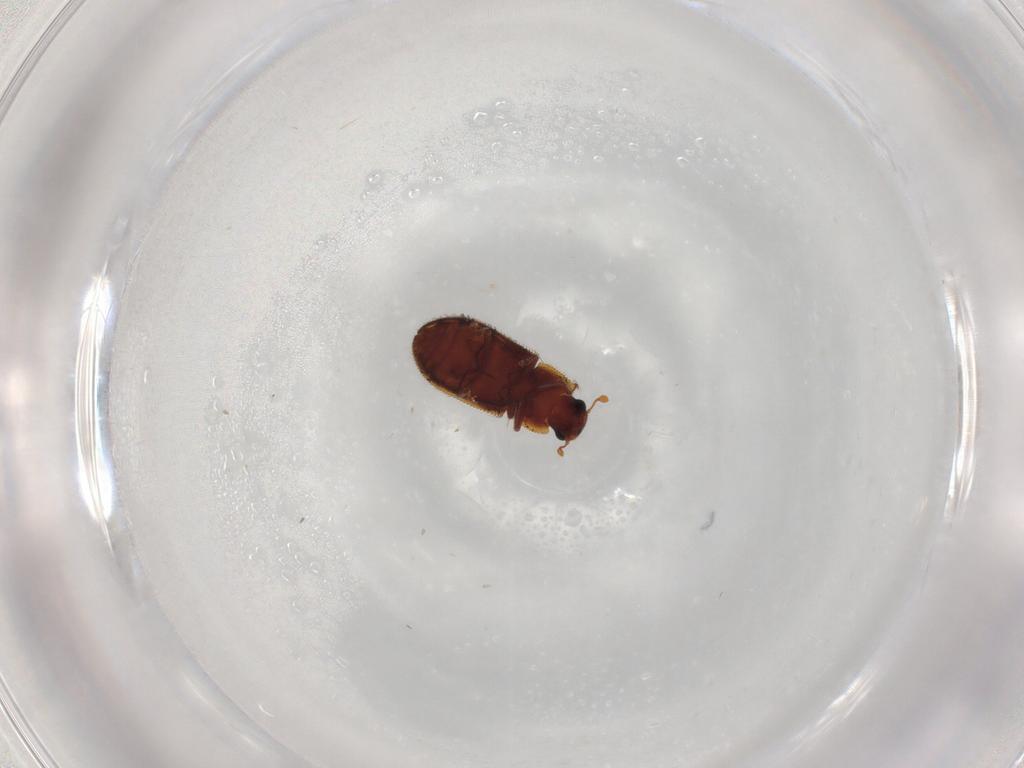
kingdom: Animalia
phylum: Arthropoda
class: Insecta
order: Coleoptera
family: Zopheridae
